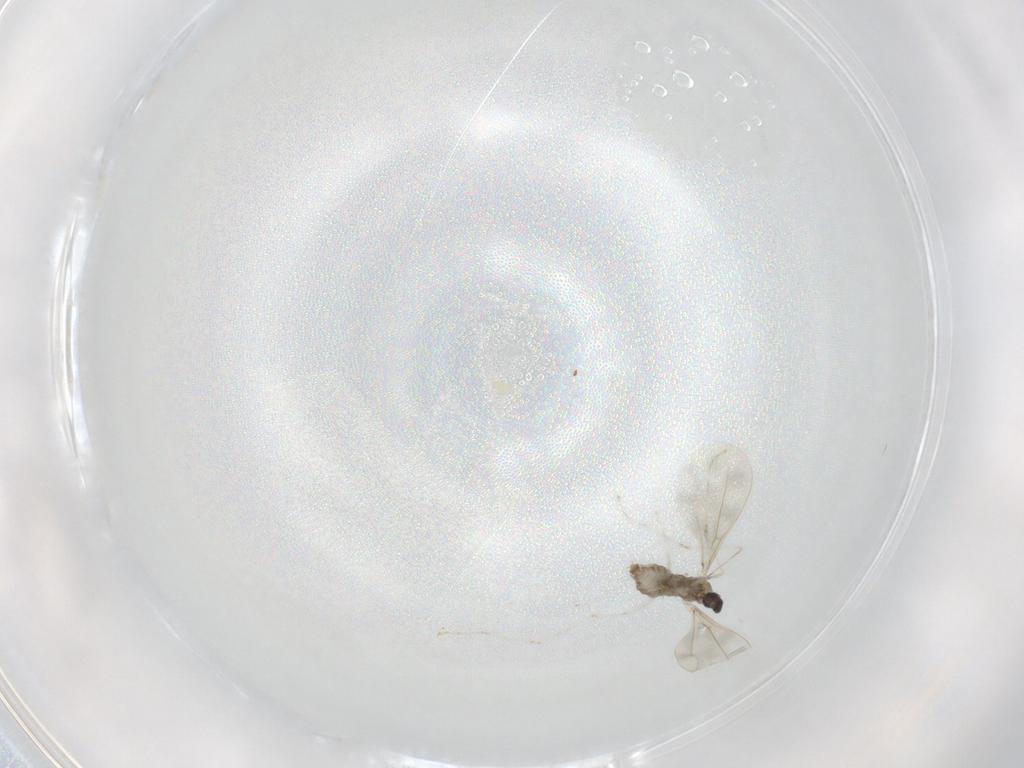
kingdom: Animalia
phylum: Arthropoda
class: Insecta
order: Diptera
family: Cecidomyiidae
